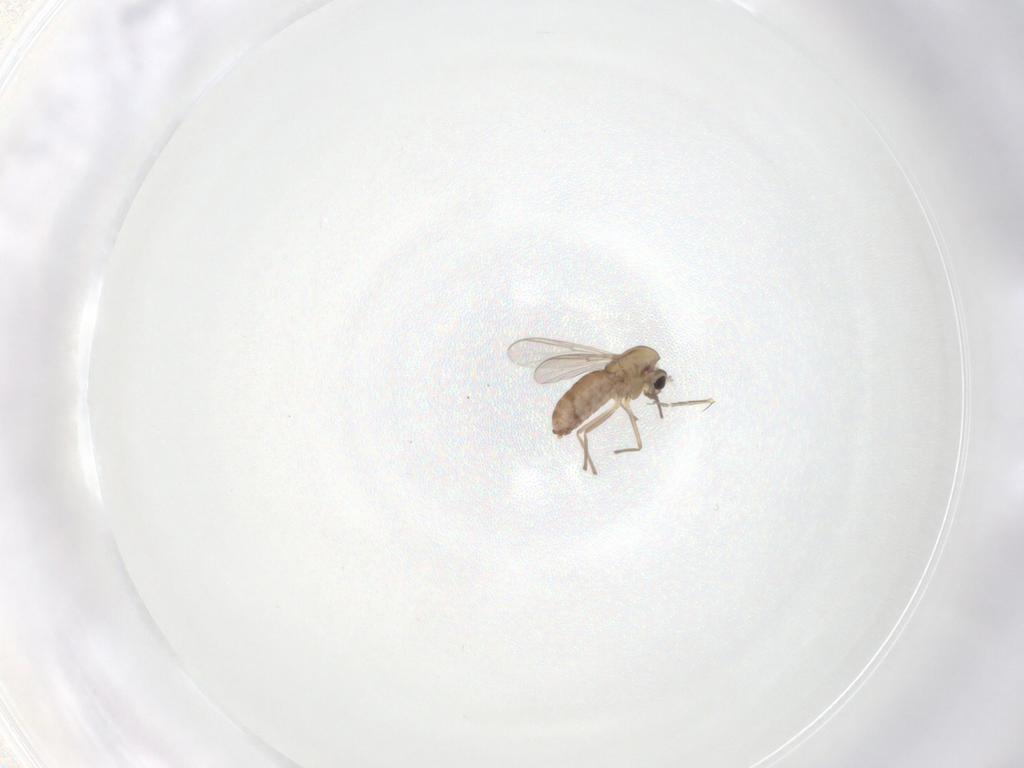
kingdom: Animalia
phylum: Arthropoda
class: Insecta
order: Diptera
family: Chironomidae
